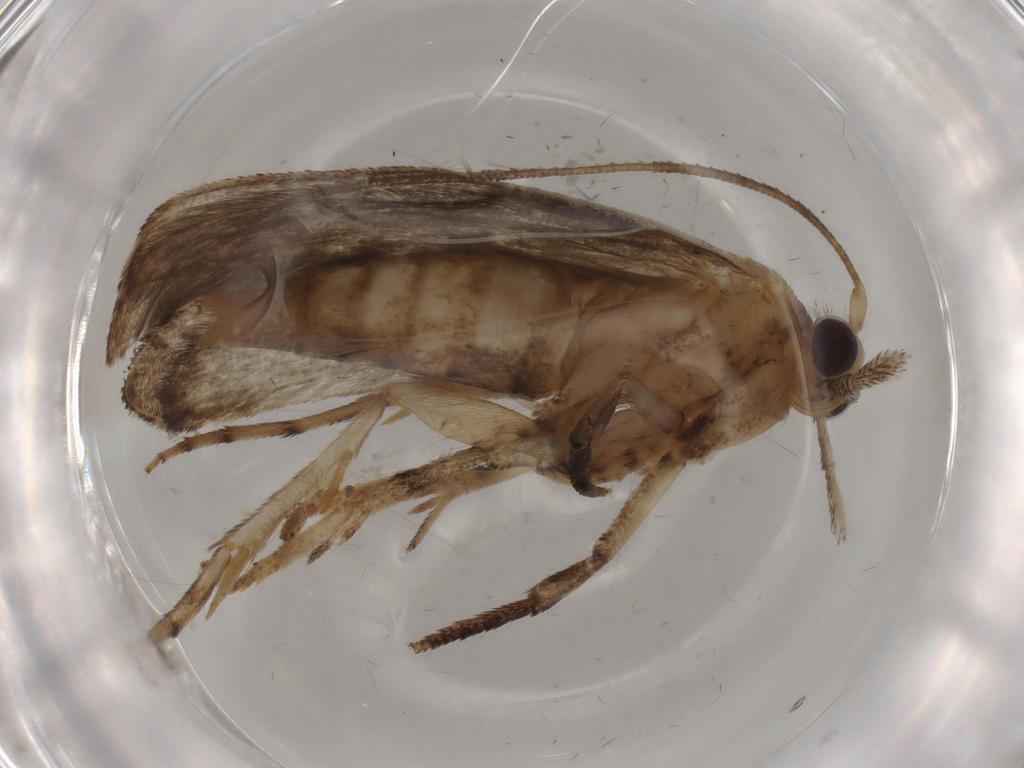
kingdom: Animalia
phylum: Arthropoda
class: Insecta
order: Lepidoptera
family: Yponomeutidae
